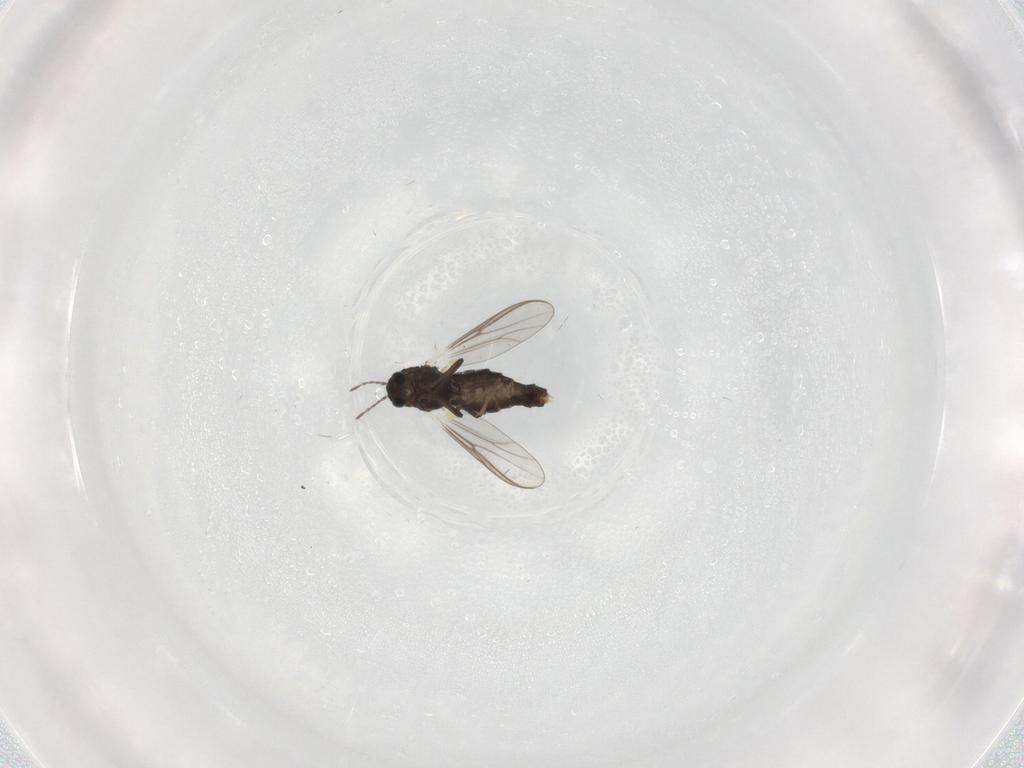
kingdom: Animalia
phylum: Arthropoda
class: Insecta
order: Diptera
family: Chironomidae
